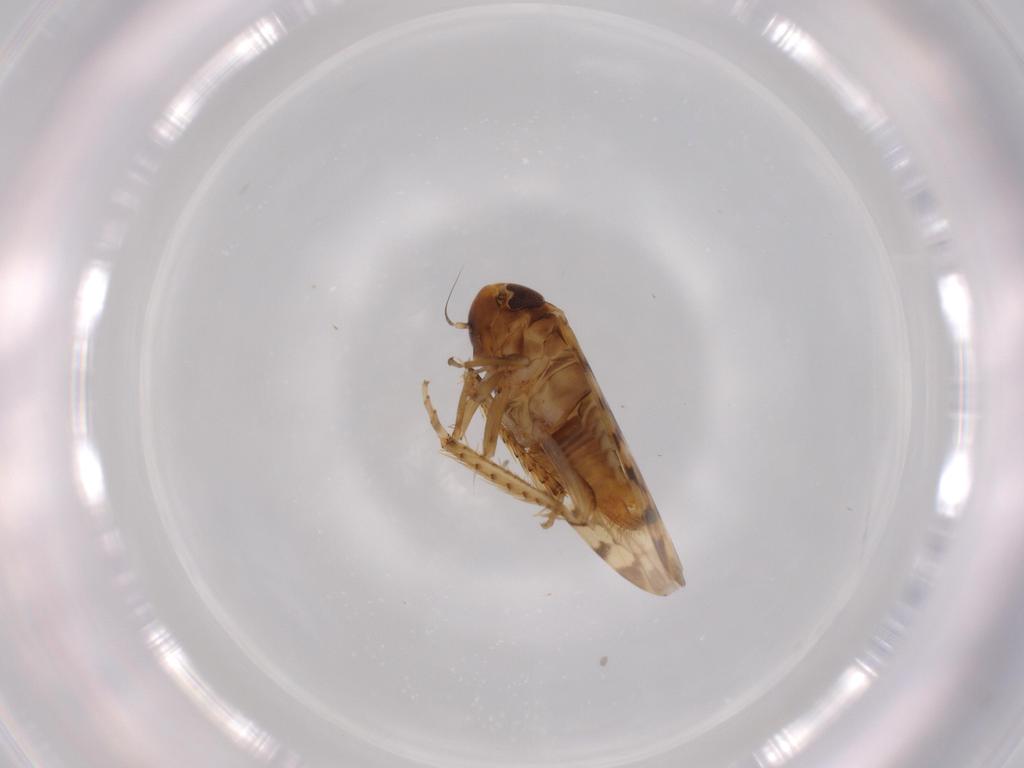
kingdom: Animalia
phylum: Arthropoda
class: Insecta
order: Hemiptera
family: Cicadellidae
